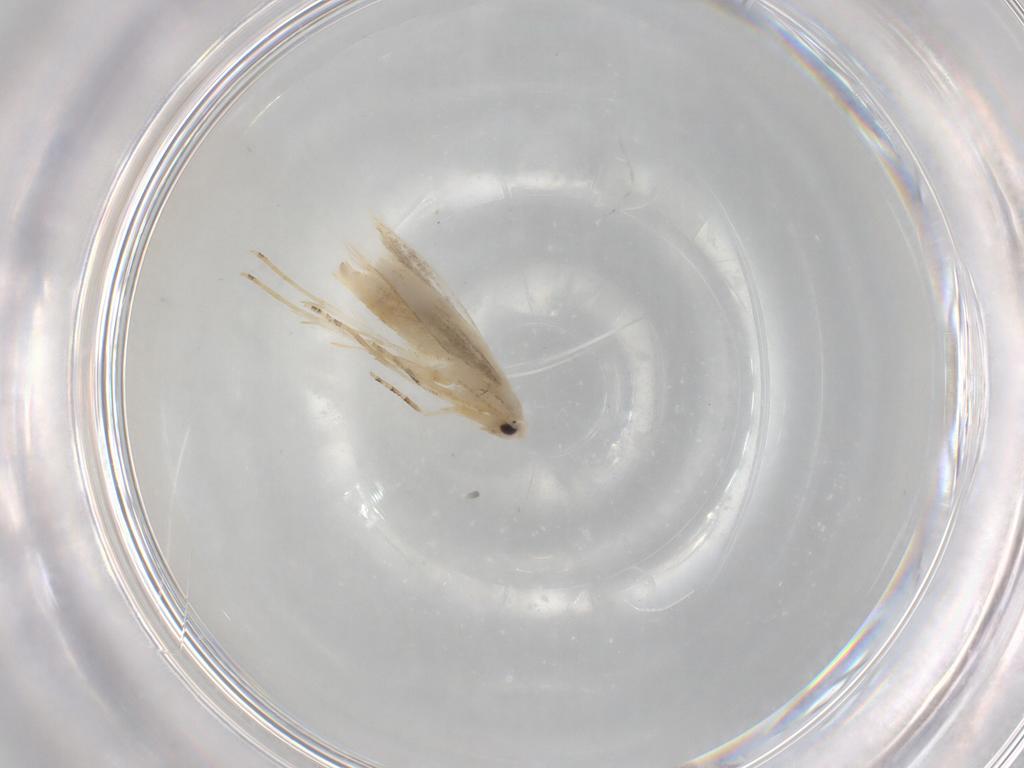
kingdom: Animalia
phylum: Arthropoda
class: Insecta
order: Lepidoptera
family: Bucculatricidae
